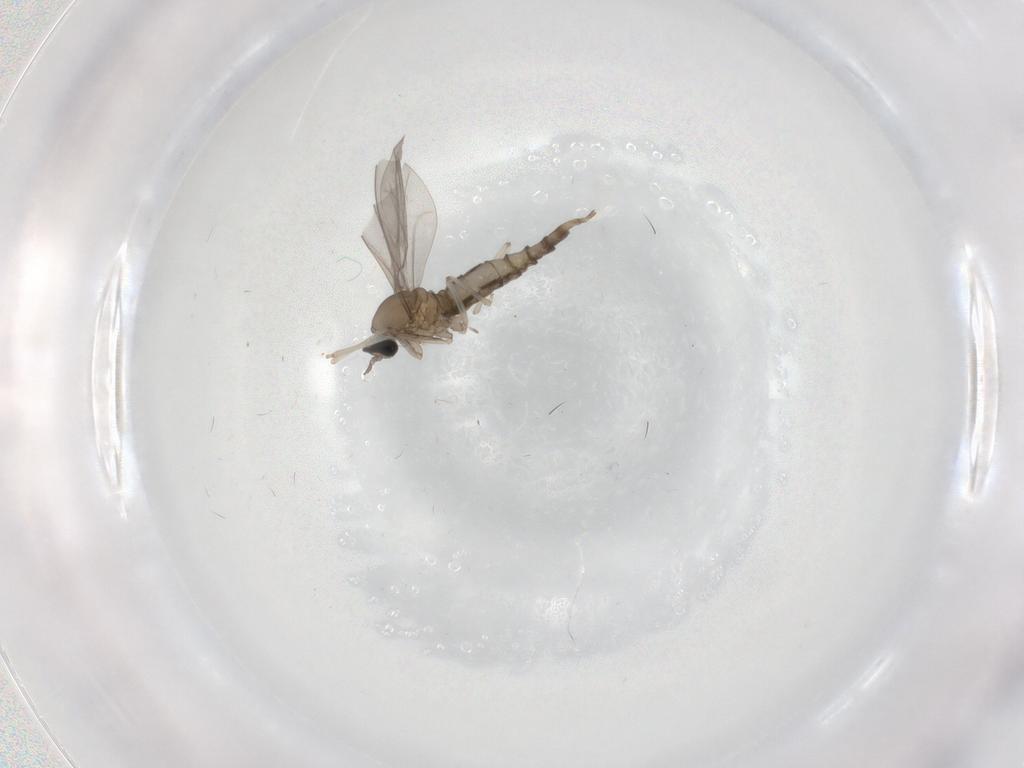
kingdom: Animalia
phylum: Arthropoda
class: Insecta
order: Diptera
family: Cecidomyiidae
